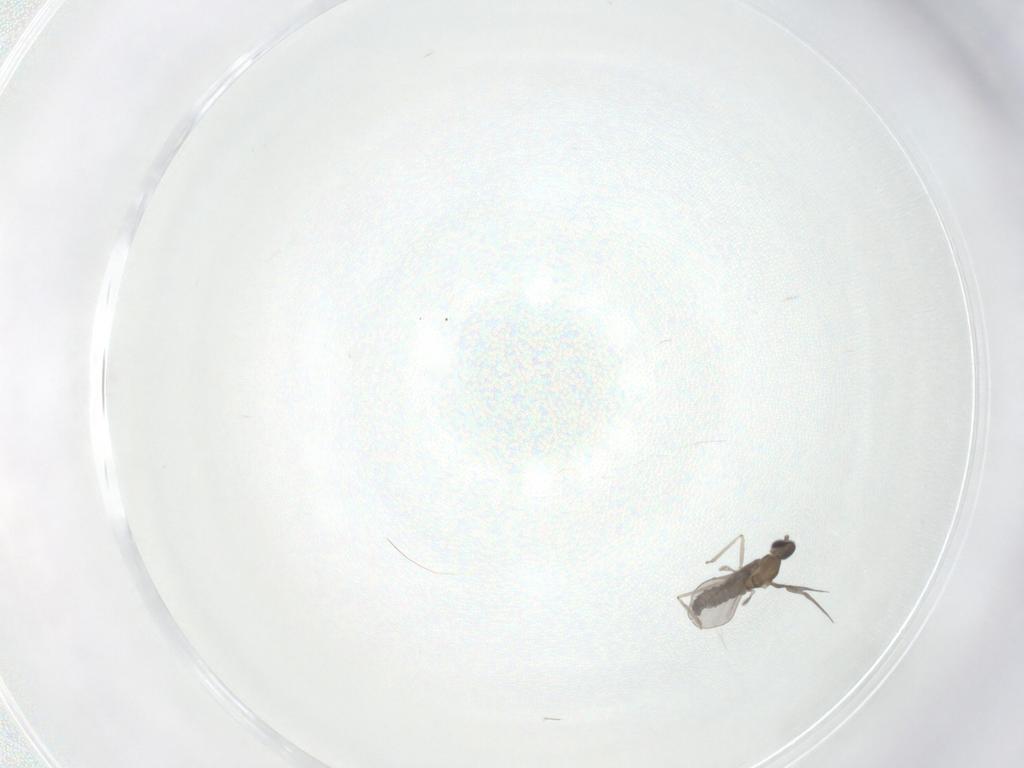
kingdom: Animalia
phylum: Arthropoda
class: Insecta
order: Diptera
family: Cecidomyiidae
